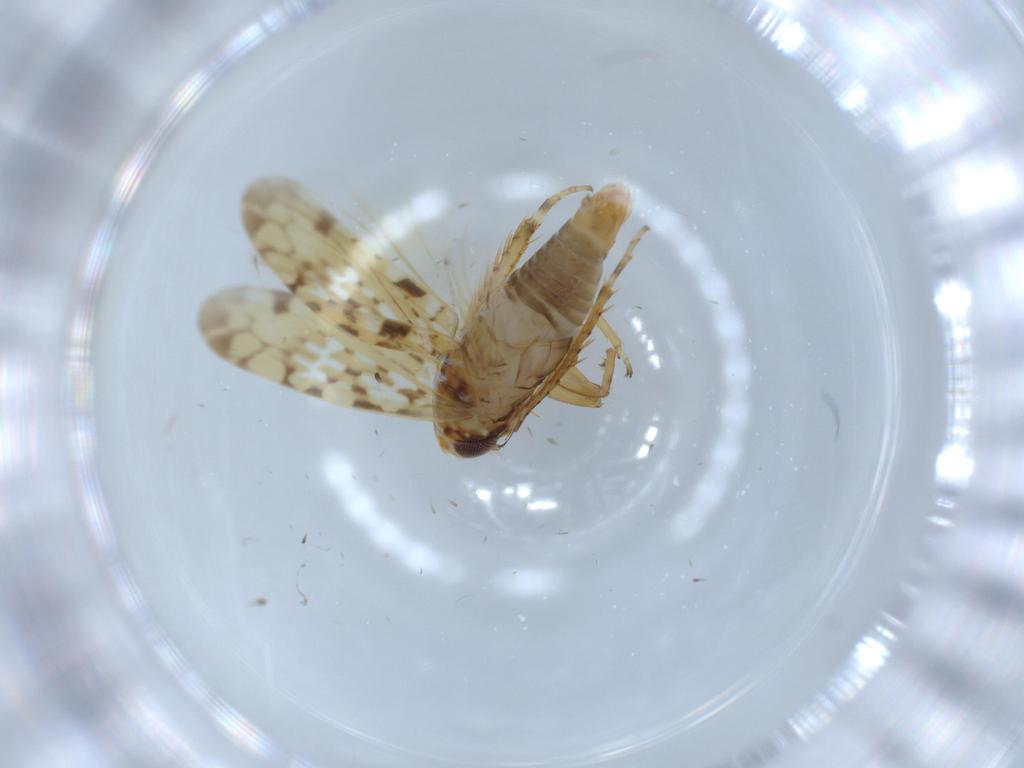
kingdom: Animalia
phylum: Arthropoda
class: Insecta
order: Hemiptera
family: Cicadellidae
